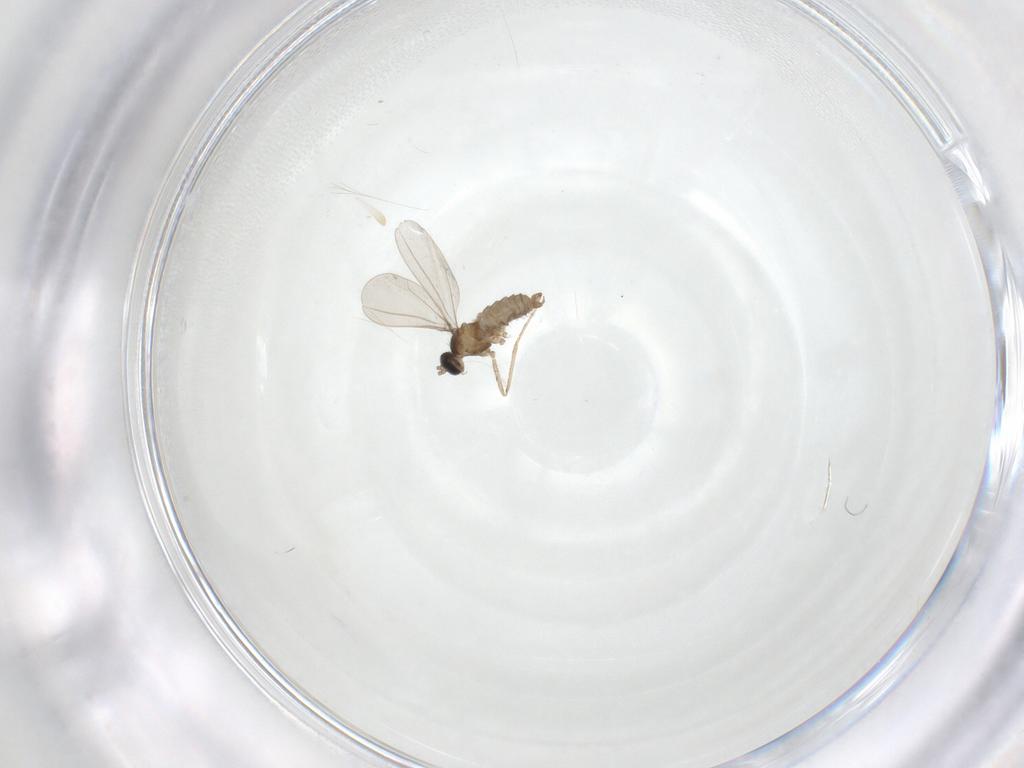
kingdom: Animalia
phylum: Arthropoda
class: Insecta
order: Diptera
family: Cecidomyiidae
